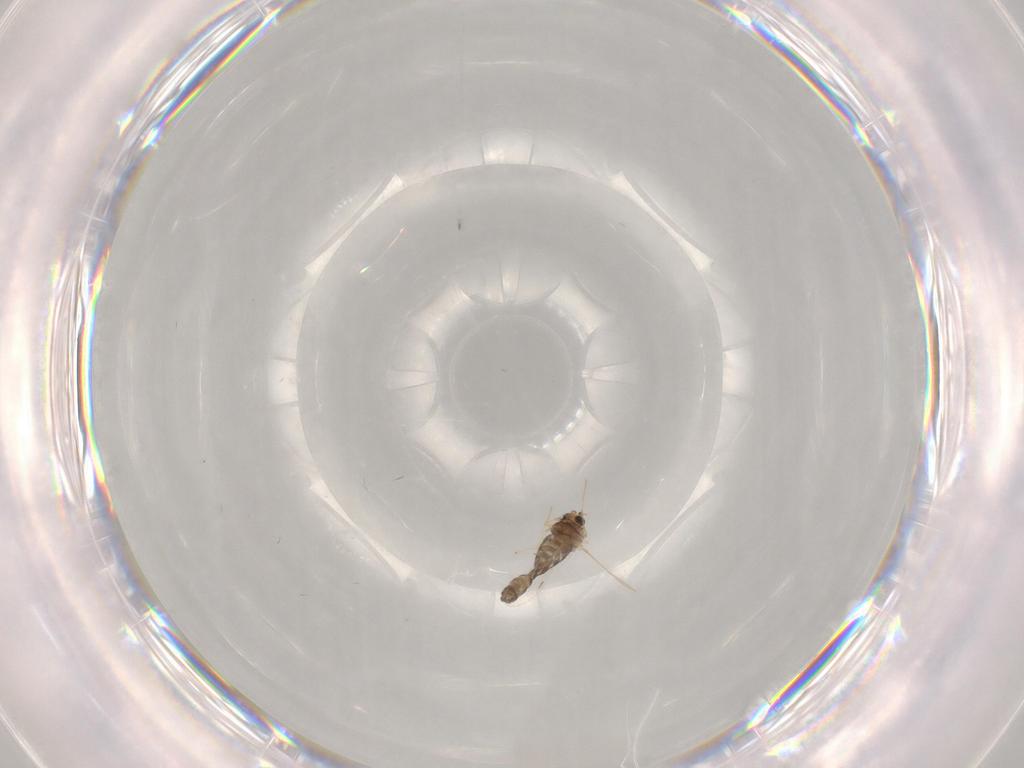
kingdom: Animalia
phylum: Arthropoda
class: Insecta
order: Diptera
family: Chironomidae
